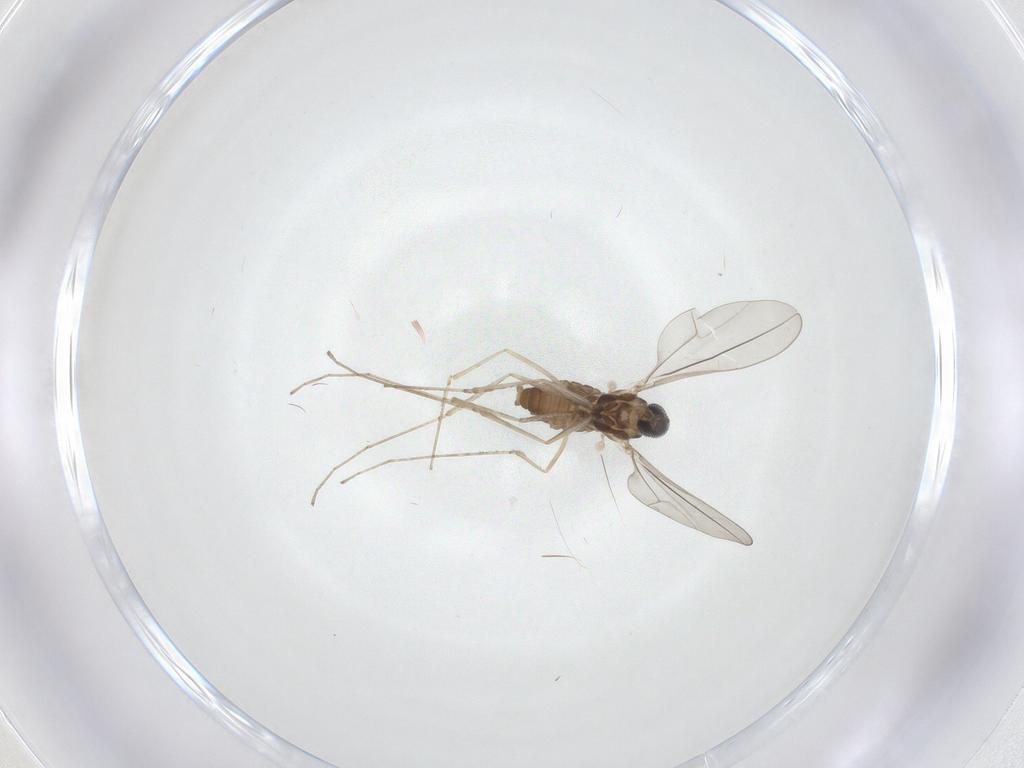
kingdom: Animalia
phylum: Arthropoda
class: Insecta
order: Diptera
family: Cecidomyiidae
